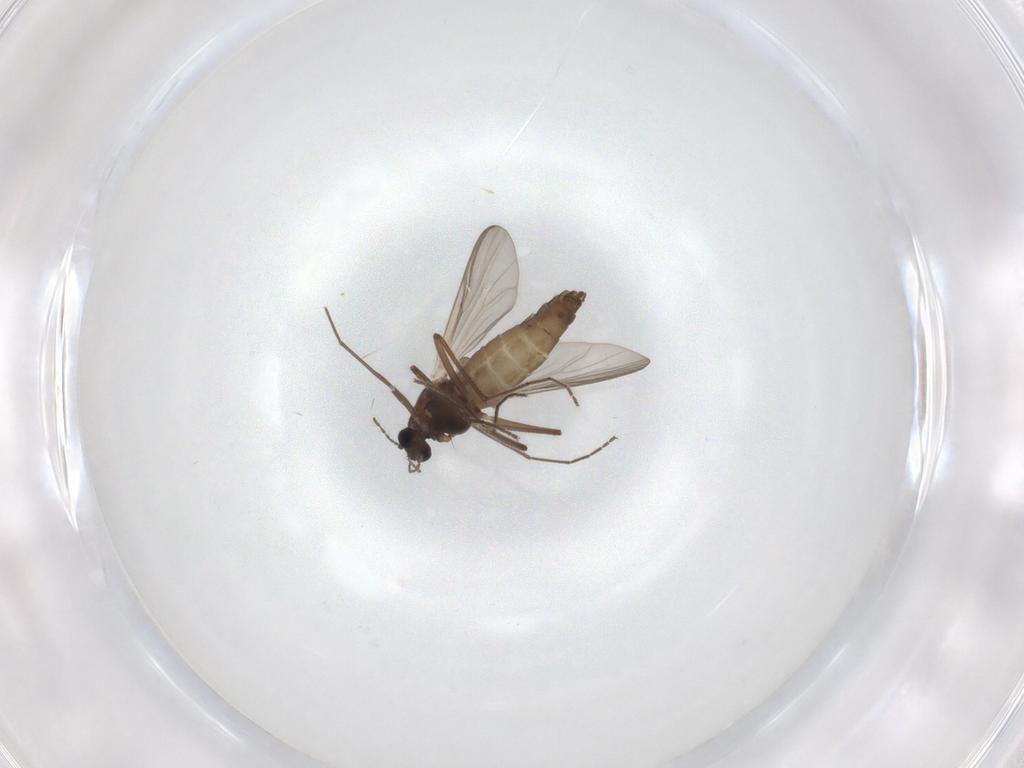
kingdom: Animalia
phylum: Arthropoda
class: Insecta
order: Diptera
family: Chironomidae
